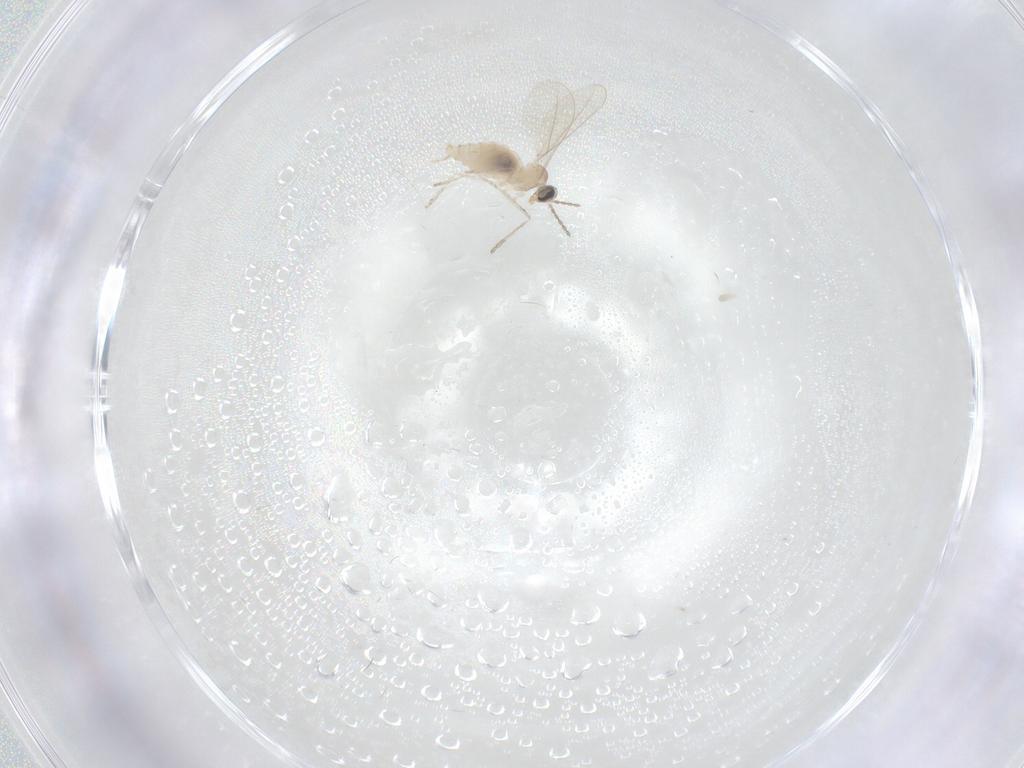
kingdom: Animalia
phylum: Arthropoda
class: Insecta
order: Diptera
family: Cecidomyiidae
